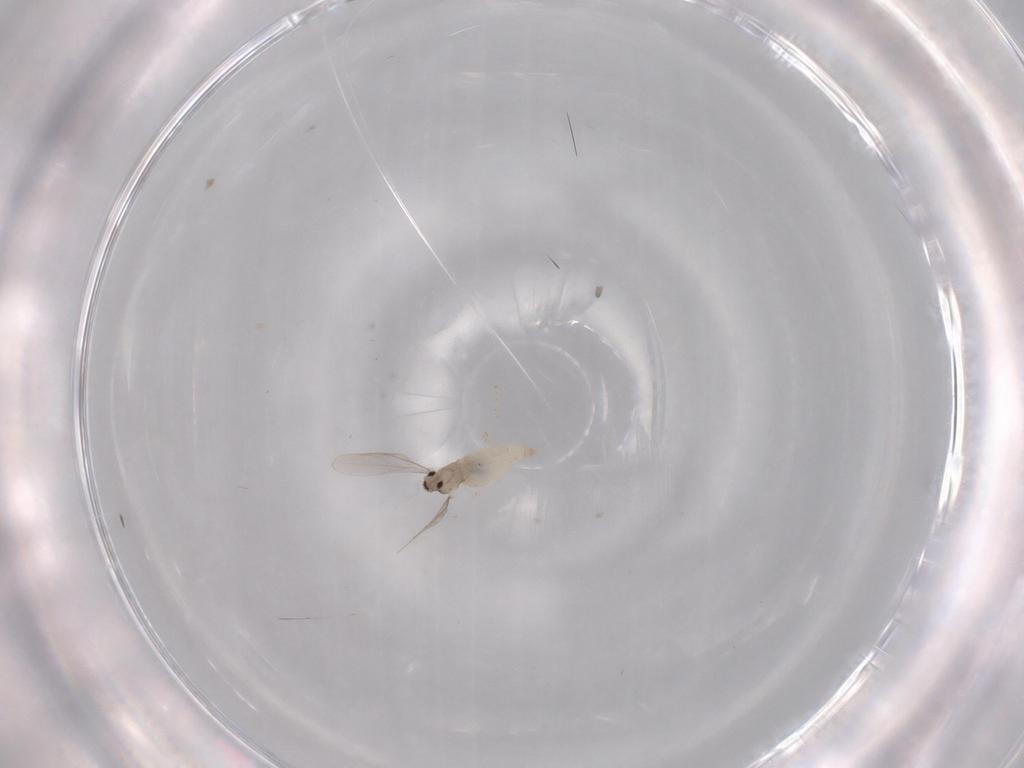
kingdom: Animalia
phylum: Arthropoda
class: Insecta
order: Diptera
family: Cecidomyiidae
